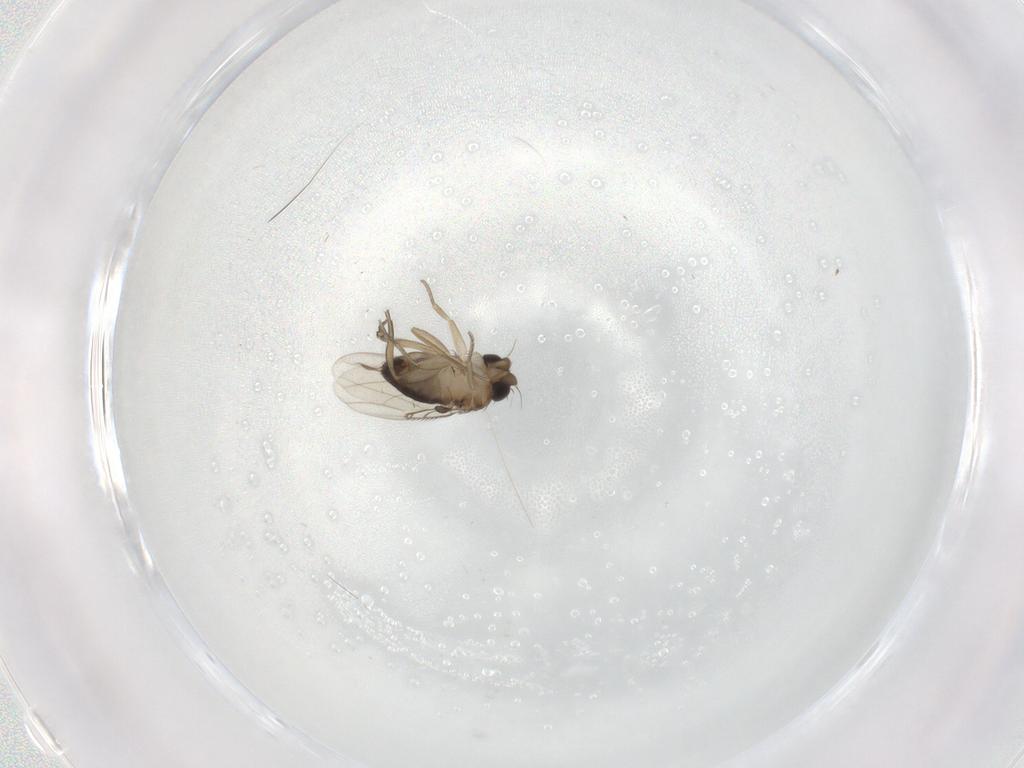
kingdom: Animalia
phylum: Arthropoda
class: Insecta
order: Diptera
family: Cecidomyiidae
